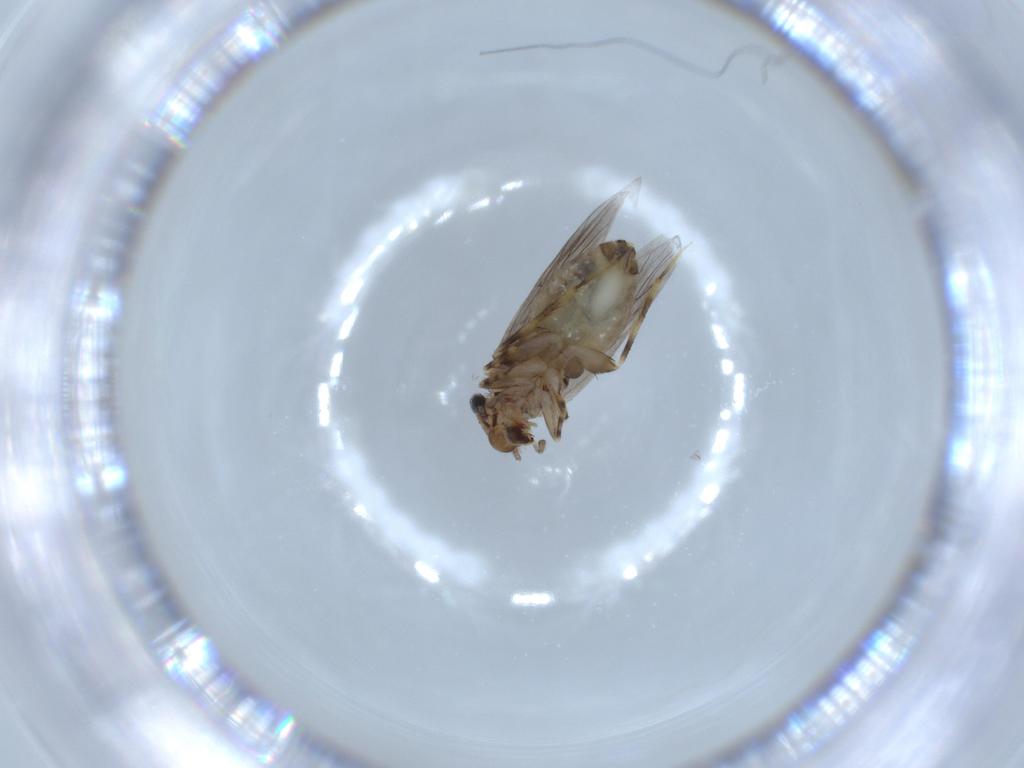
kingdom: Animalia
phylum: Arthropoda
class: Insecta
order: Psocodea
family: Lepidopsocidae
